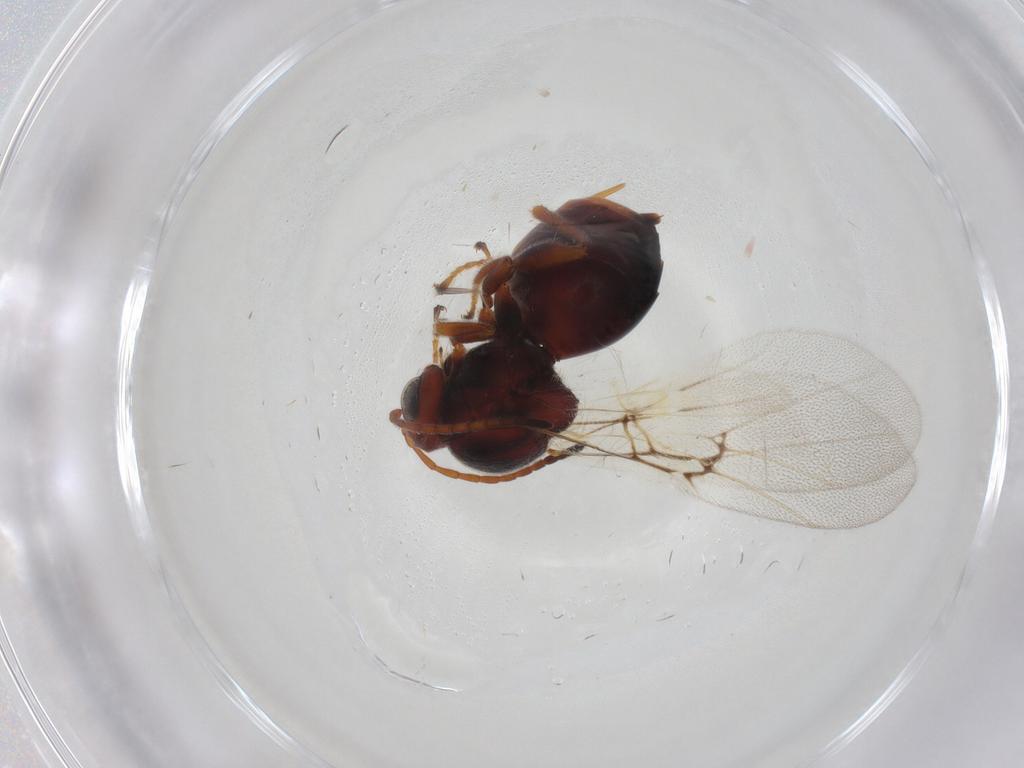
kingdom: Animalia
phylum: Arthropoda
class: Insecta
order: Hymenoptera
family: Cynipidae
